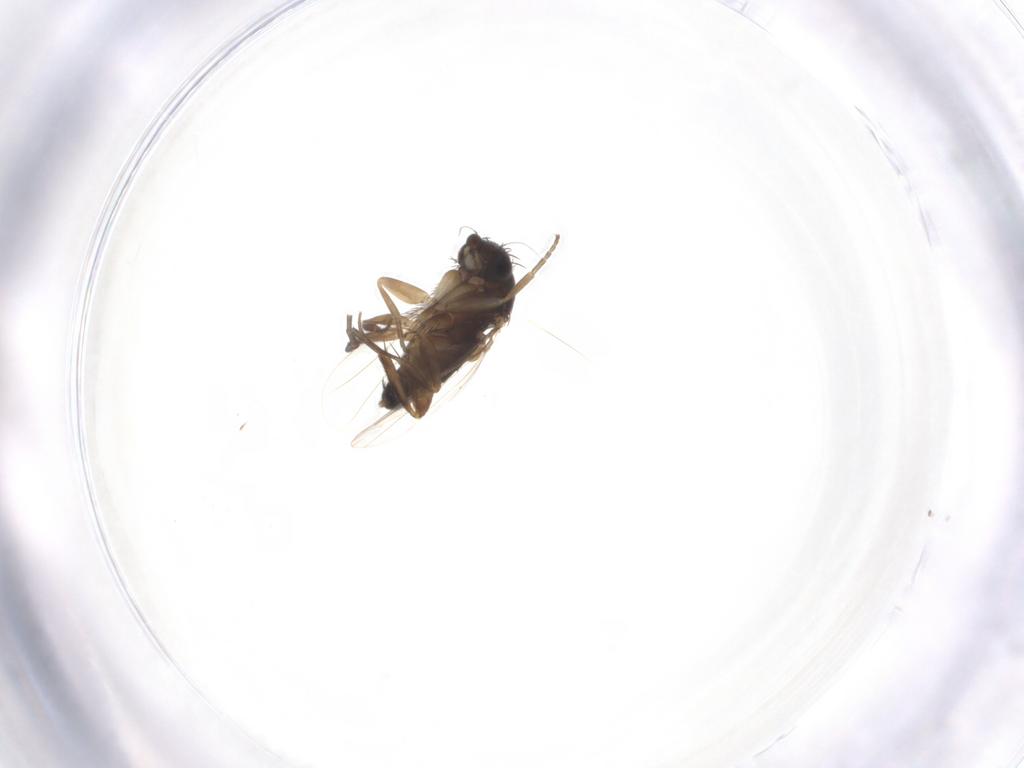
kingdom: Animalia
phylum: Arthropoda
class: Insecta
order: Diptera
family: Phoridae
